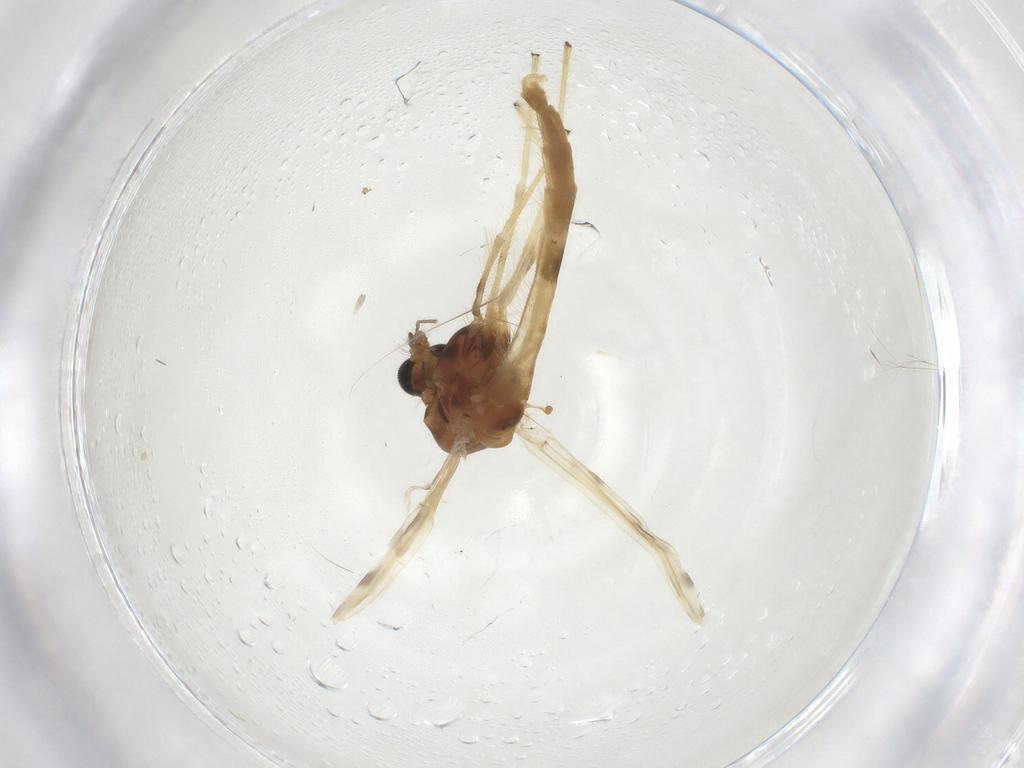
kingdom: Animalia
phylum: Arthropoda
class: Insecta
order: Diptera
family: Chironomidae
